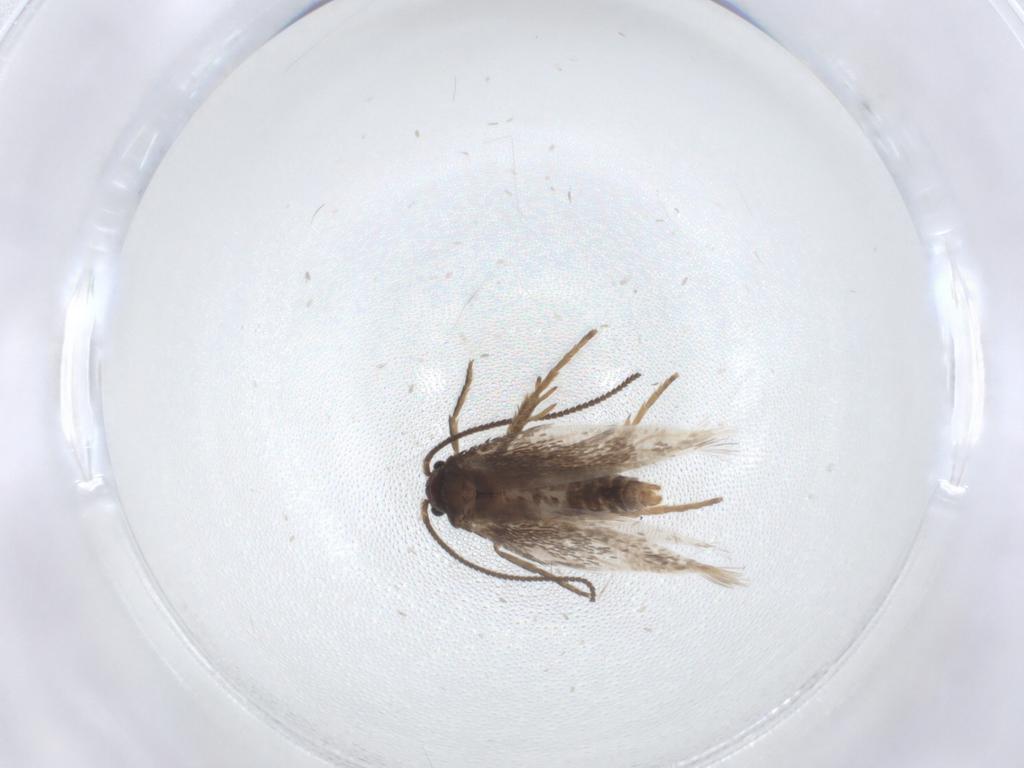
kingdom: Animalia
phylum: Arthropoda
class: Insecta
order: Lepidoptera
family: Nepticulidae
